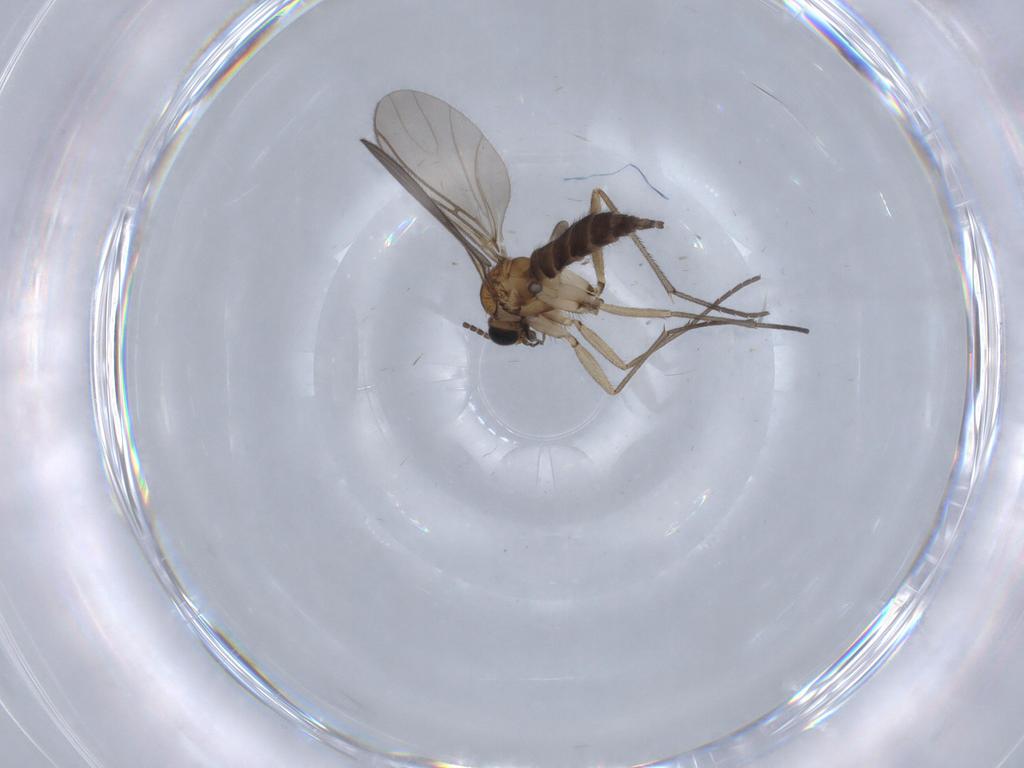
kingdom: Animalia
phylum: Arthropoda
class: Insecta
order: Diptera
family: Sciaridae
